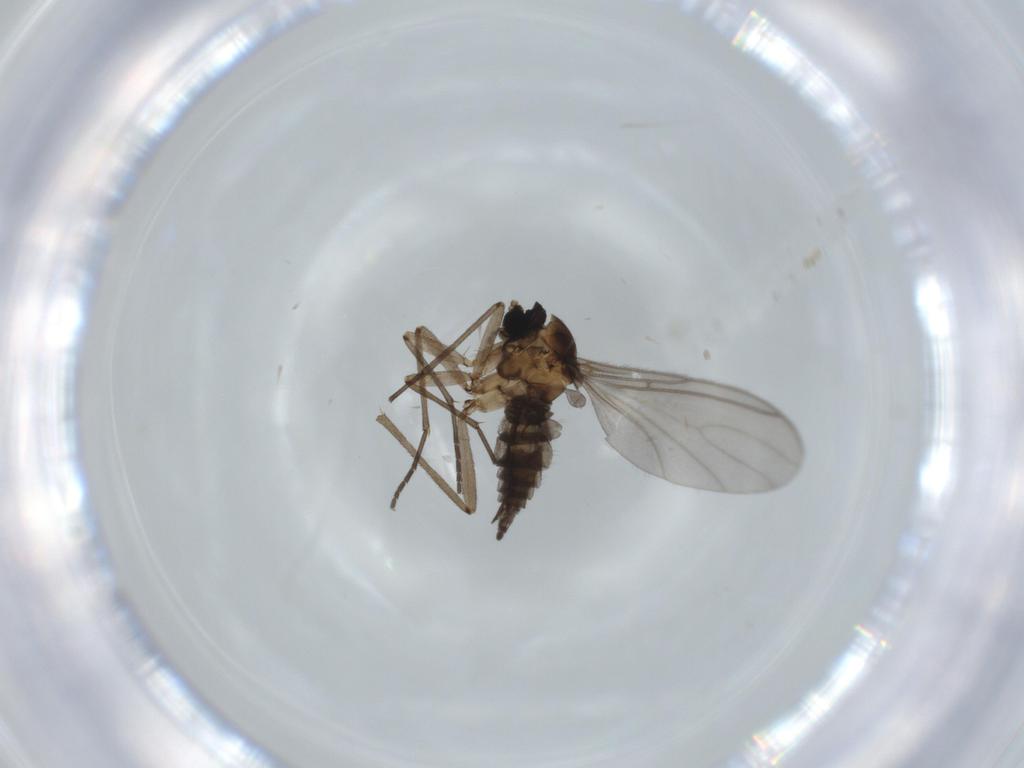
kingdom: Animalia
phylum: Arthropoda
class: Insecta
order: Diptera
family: Sciaridae
